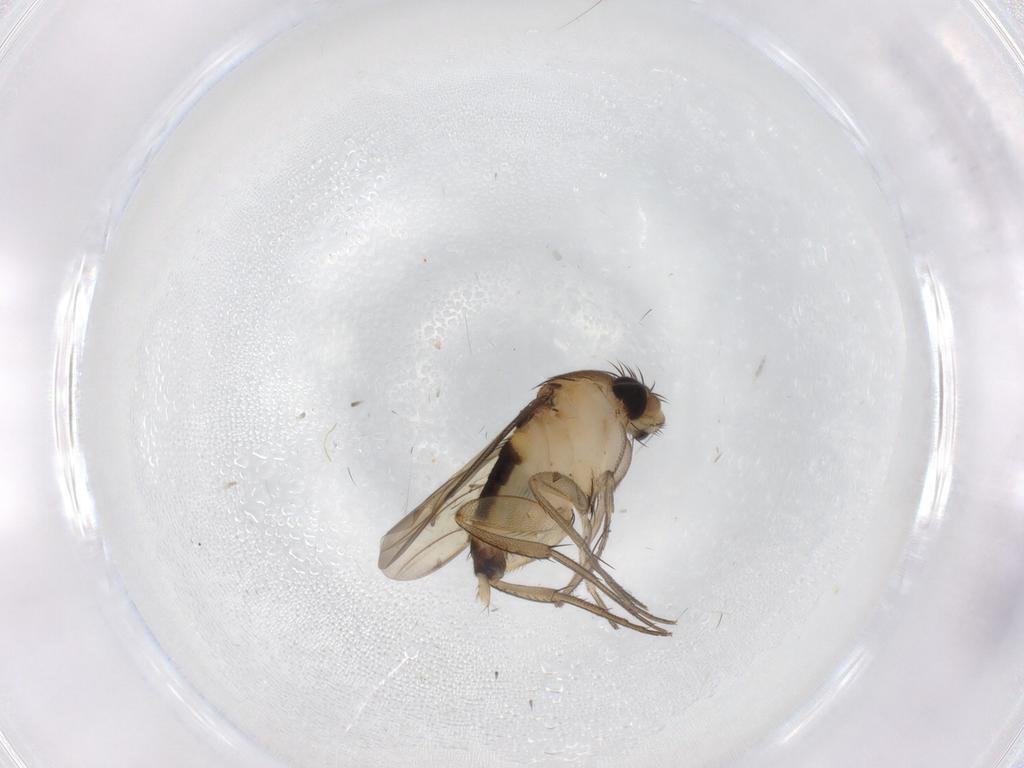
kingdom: Animalia
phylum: Arthropoda
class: Insecta
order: Diptera
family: Phoridae
